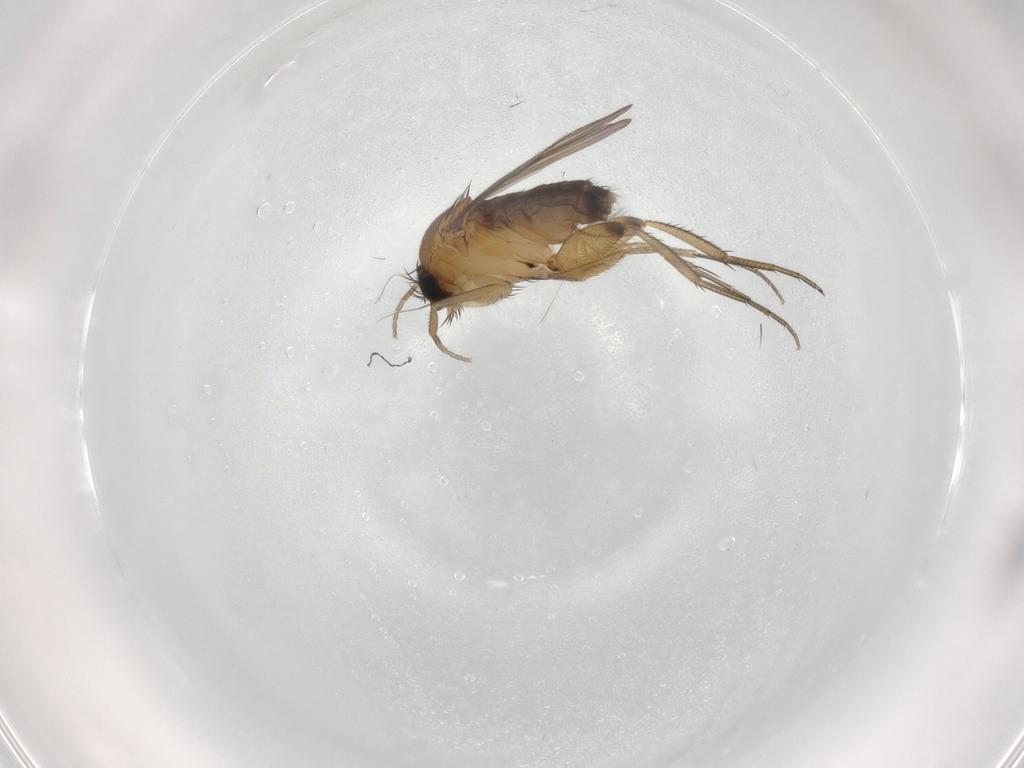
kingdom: Animalia
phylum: Arthropoda
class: Insecta
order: Diptera
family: Phoridae
